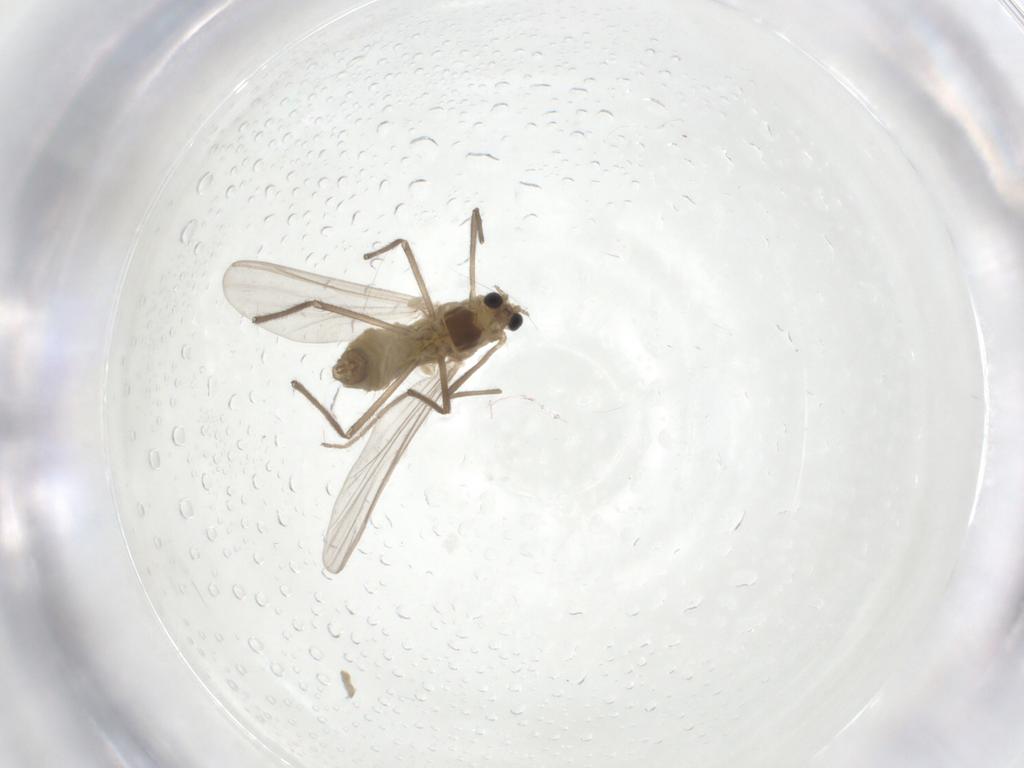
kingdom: Animalia
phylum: Arthropoda
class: Insecta
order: Diptera
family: Chironomidae
